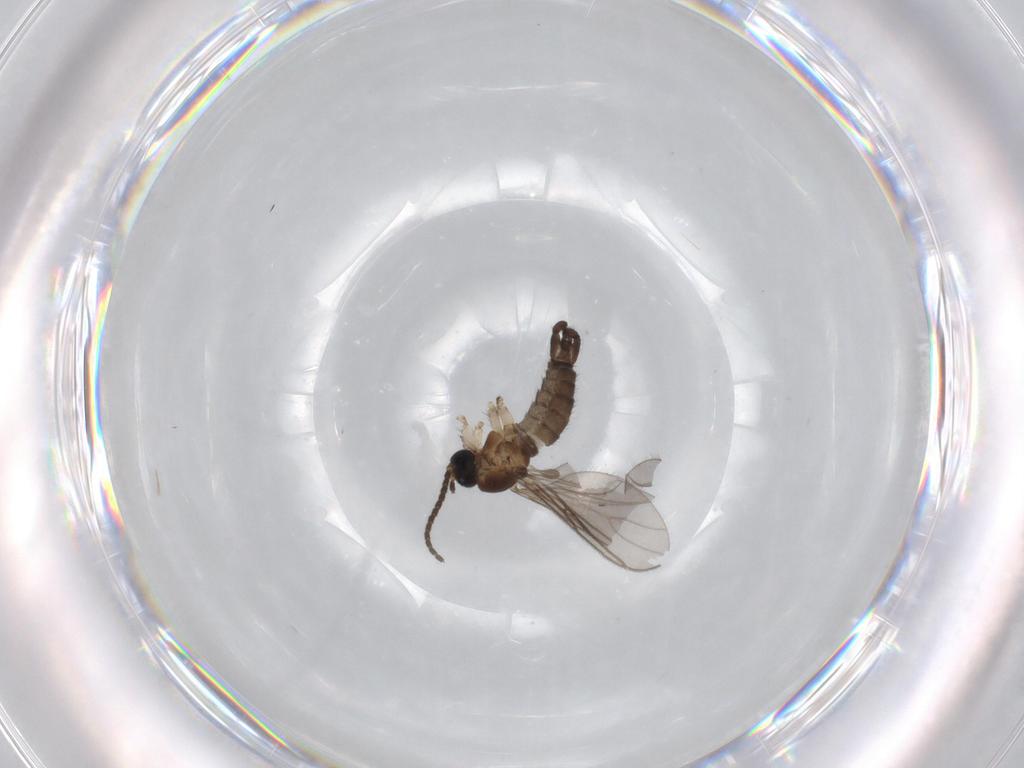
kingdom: Animalia
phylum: Arthropoda
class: Insecta
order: Diptera
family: Sciaridae
